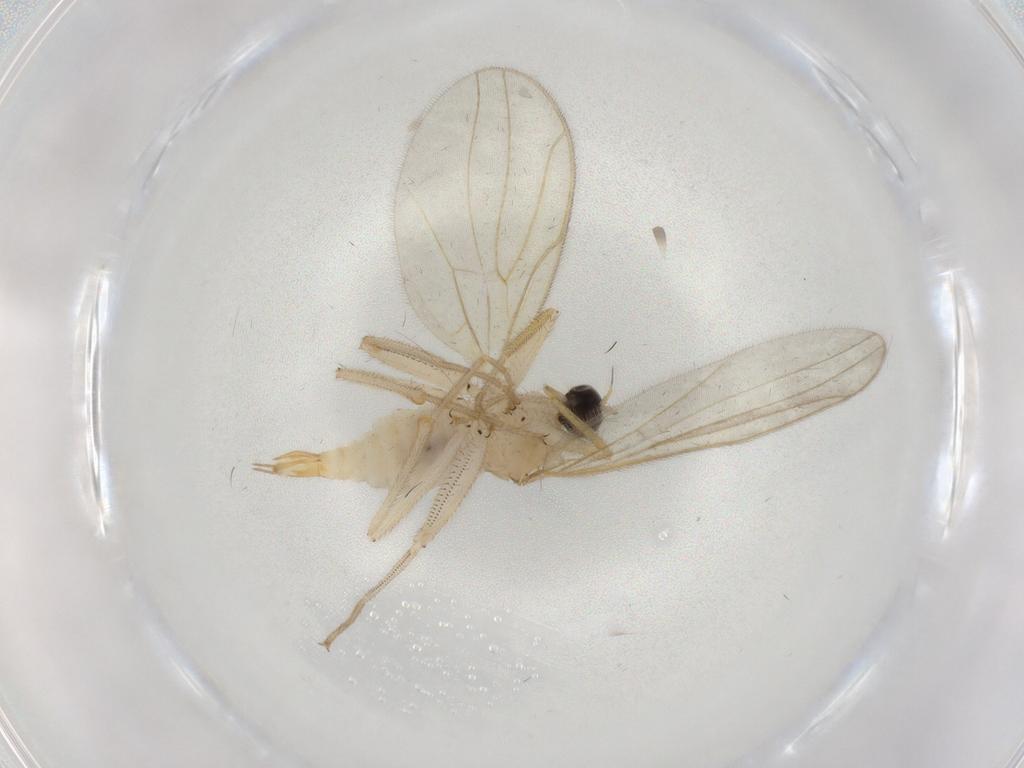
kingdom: Animalia
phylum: Arthropoda
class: Insecta
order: Diptera
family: Hybotidae
